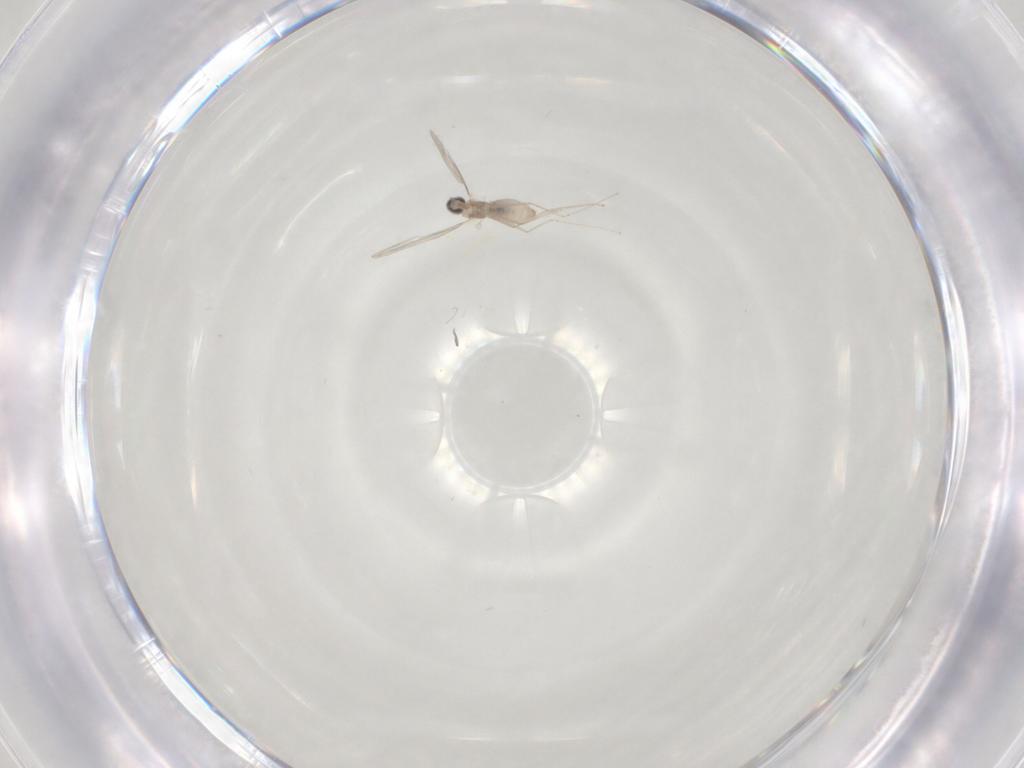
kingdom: Animalia
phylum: Arthropoda
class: Insecta
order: Diptera
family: Cecidomyiidae
